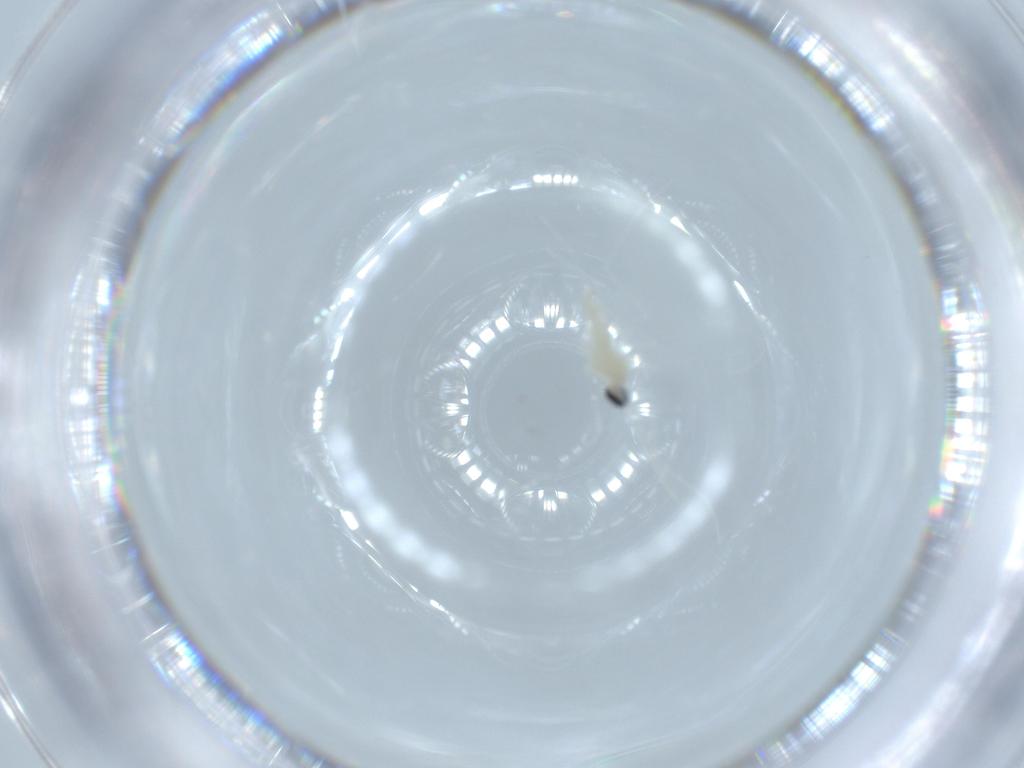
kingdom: Animalia
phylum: Arthropoda
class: Insecta
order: Diptera
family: Cecidomyiidae
